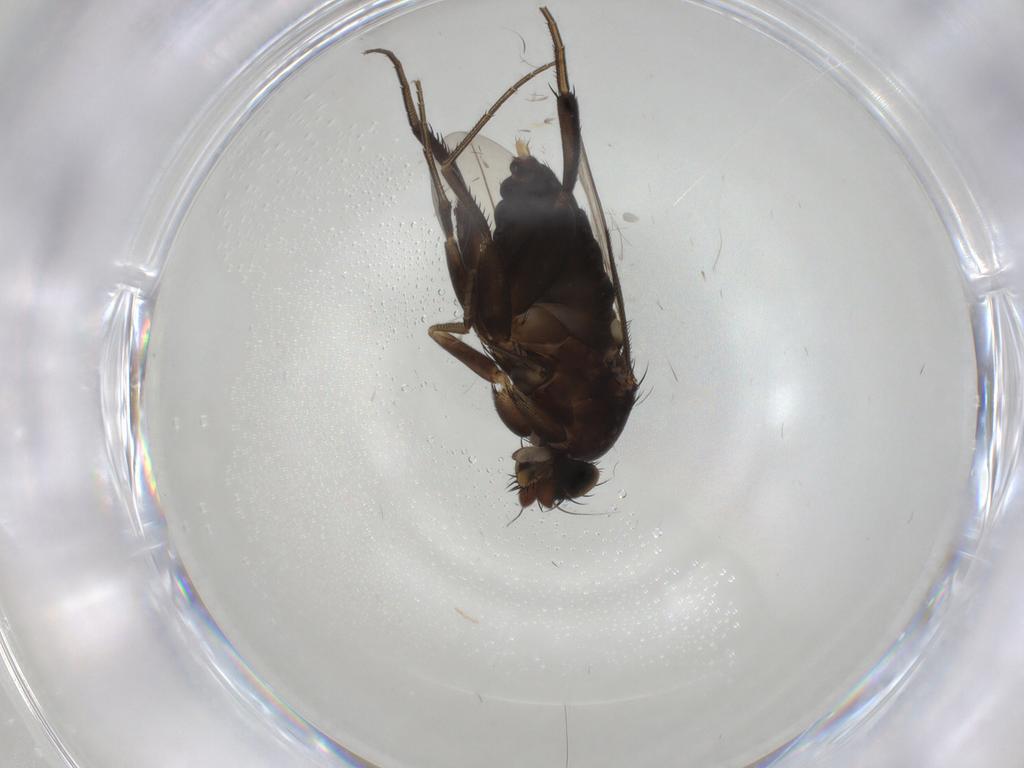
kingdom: Animalia
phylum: Arthropoda
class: Insecta
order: Diptera
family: Phoridae
